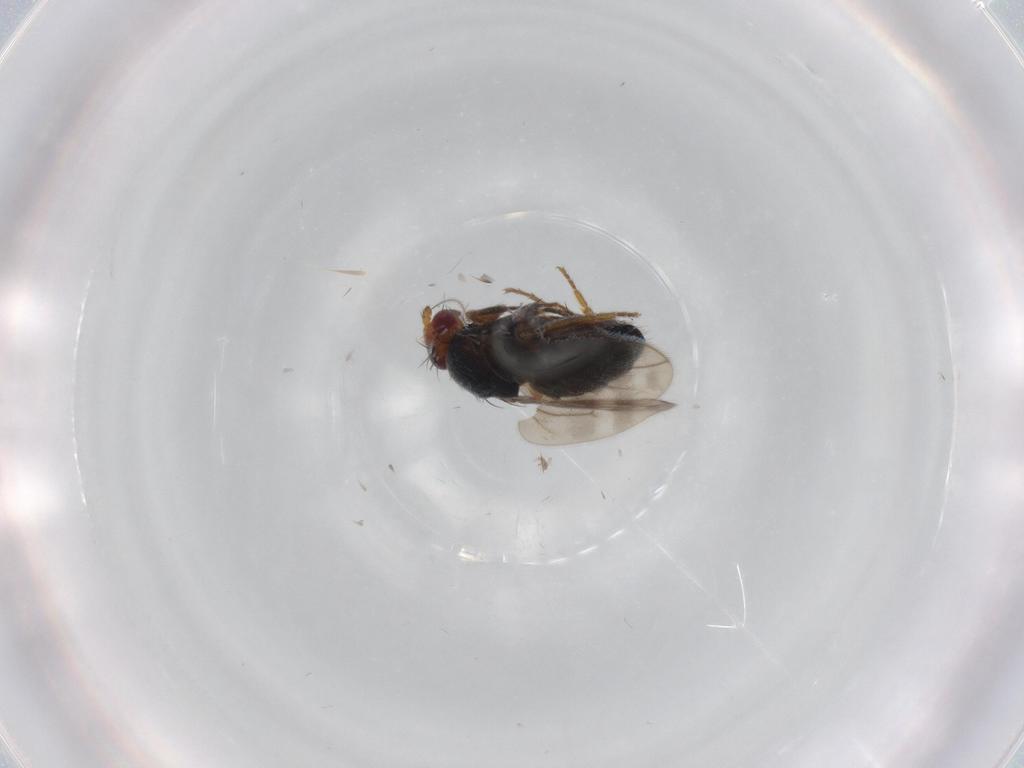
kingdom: Animalia
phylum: Arthropoda
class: Insecta
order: Diptera
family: Sphaeroceridae
